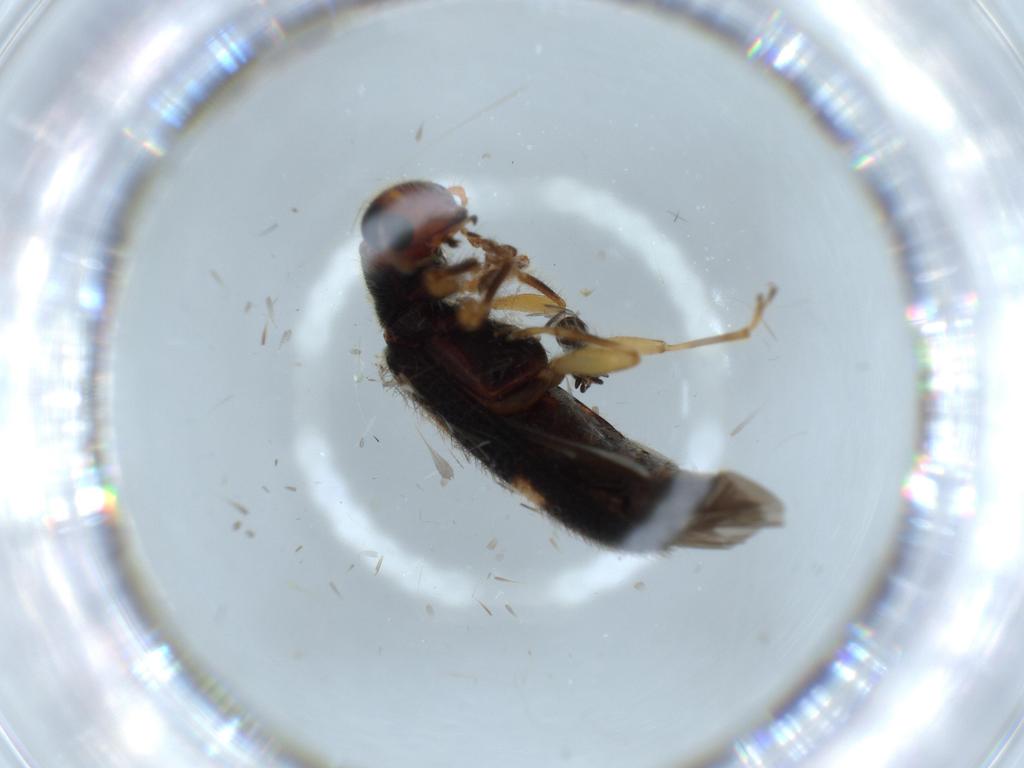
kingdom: Animalia
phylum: Arthropoda
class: Insecta
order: Coleoptera
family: Cleridae
